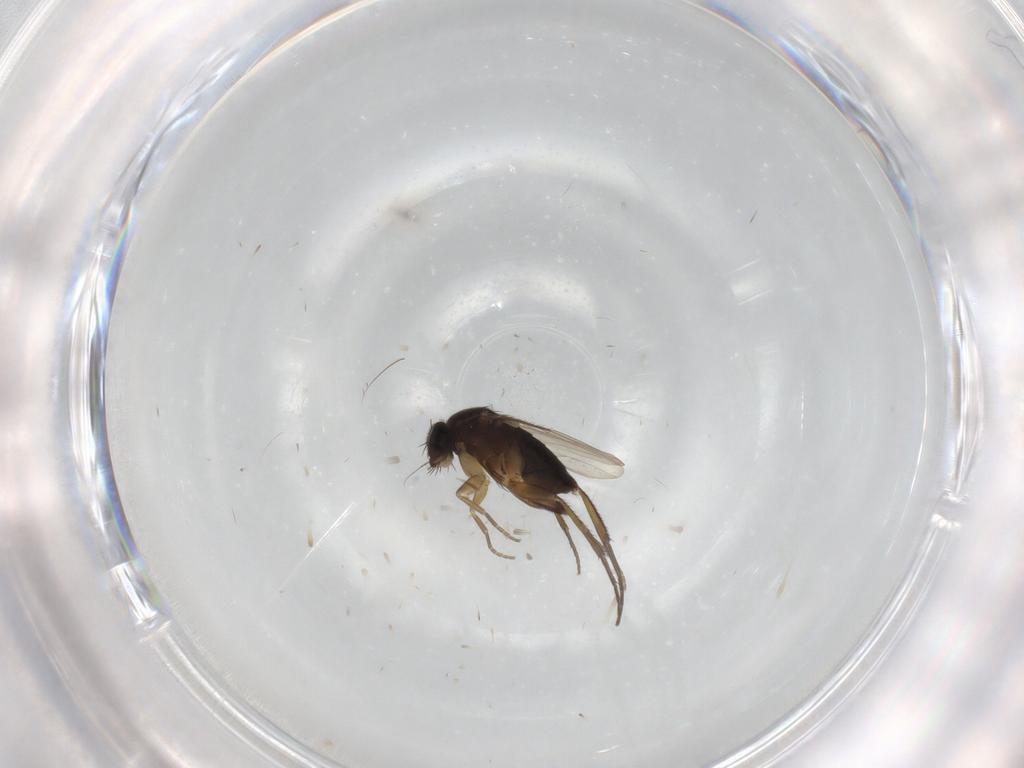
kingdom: Animalia
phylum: Arthropoda
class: Insecta
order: Diptera
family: Phoridae
